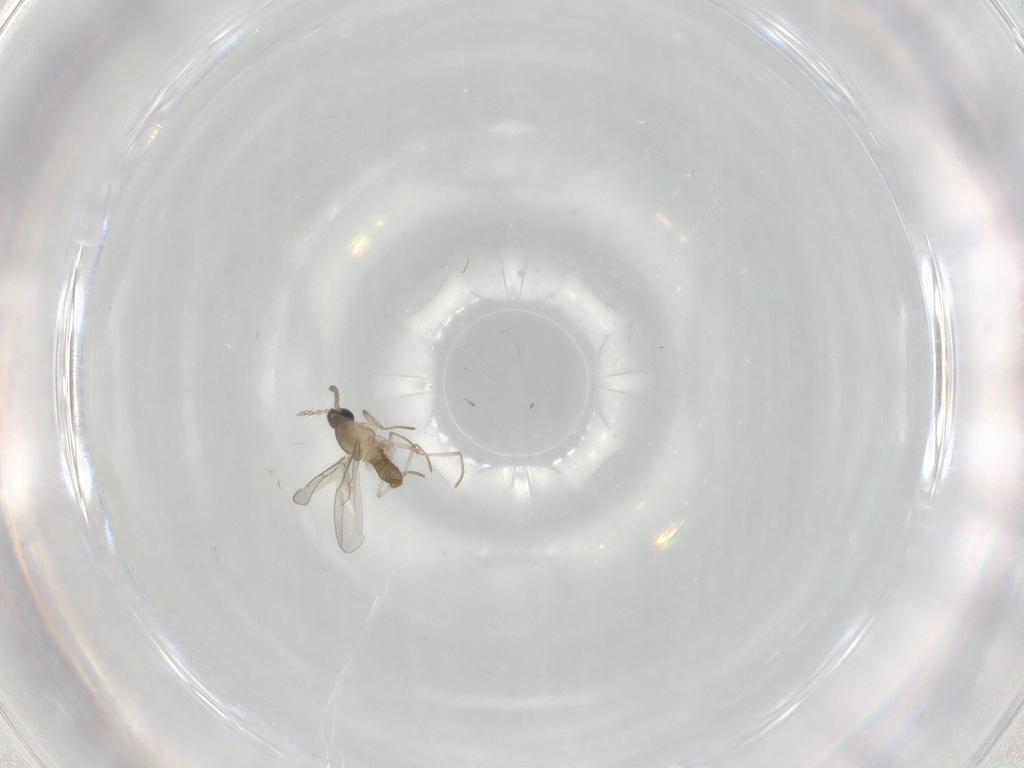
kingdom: Animalia
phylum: Arthropoda
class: Insecta
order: Diptera
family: Cecidomyiidae
